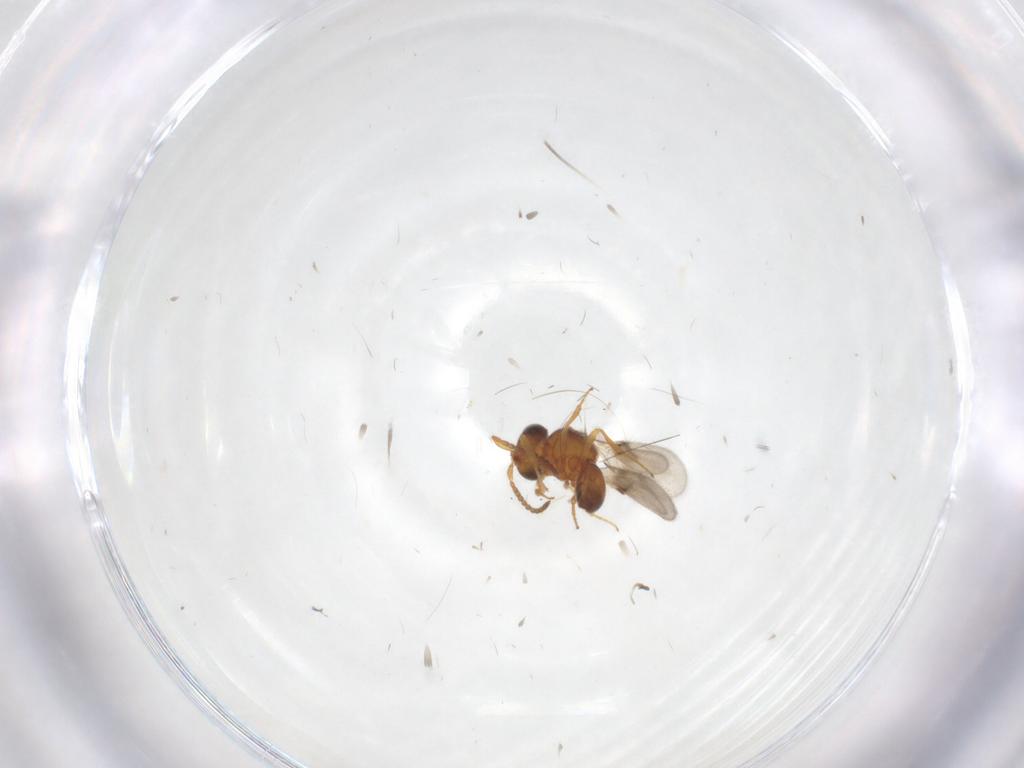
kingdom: Animalia
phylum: Arthropoda
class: Insecta
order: Hymenoptera
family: Scelionidae
